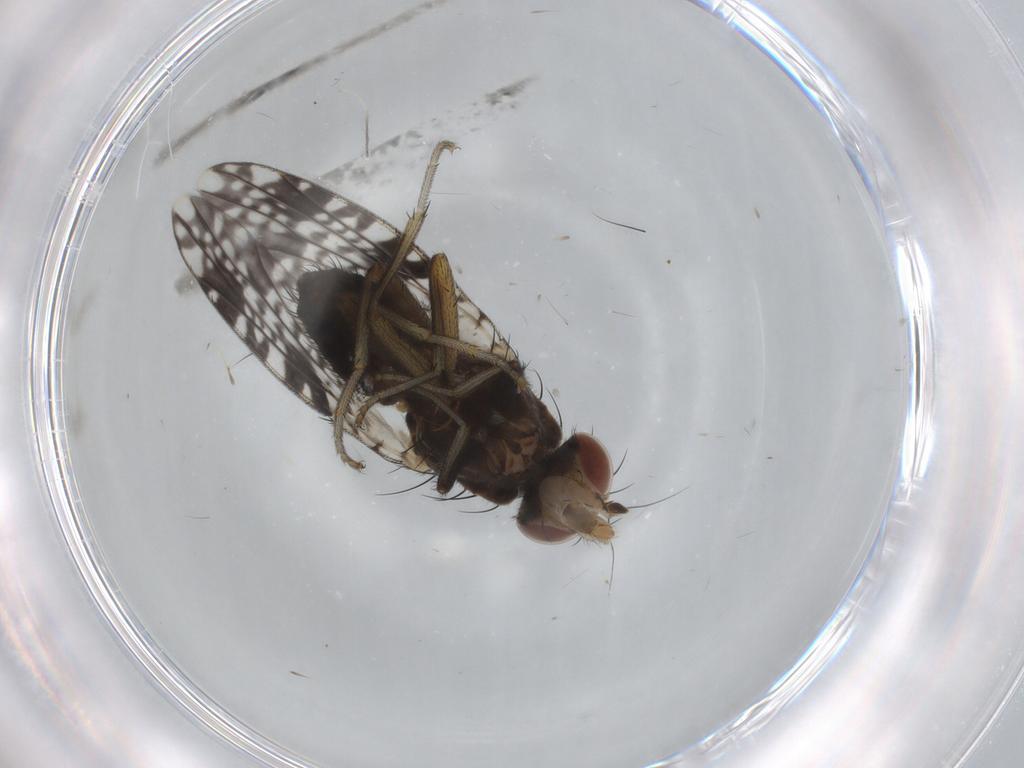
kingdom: Animalia
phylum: Arthropoda
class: Insecta
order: Diptera
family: Tephritidae
